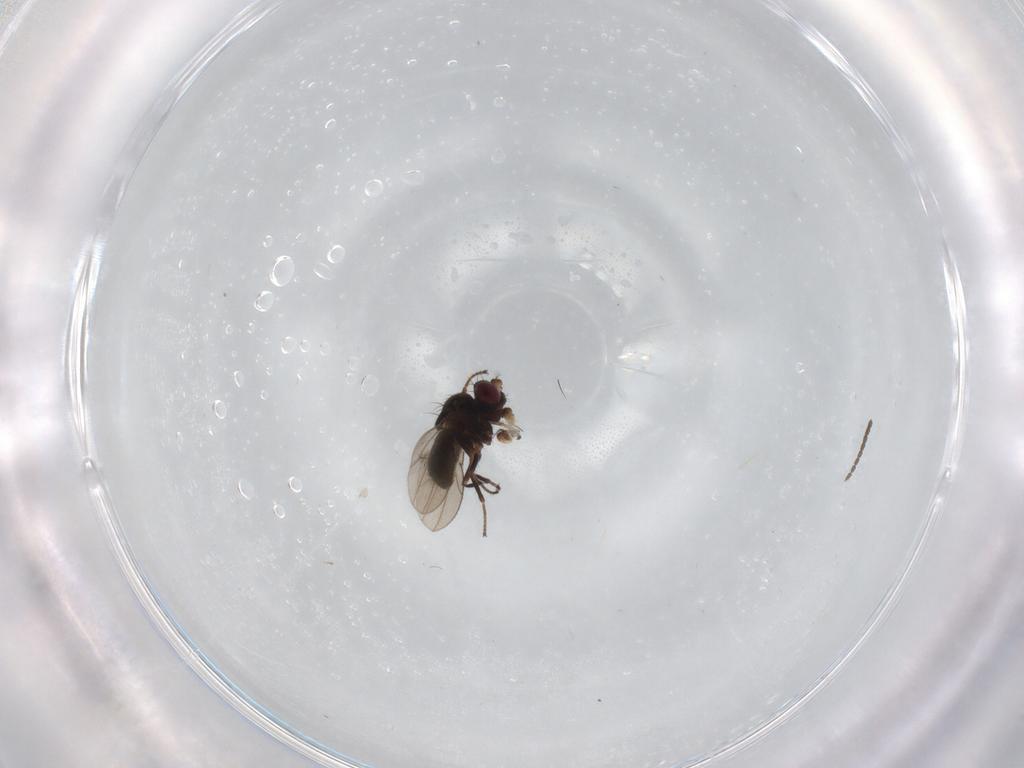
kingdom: Animalia
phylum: Arthropoda
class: Insecta
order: Diptera
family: Ephydridae
